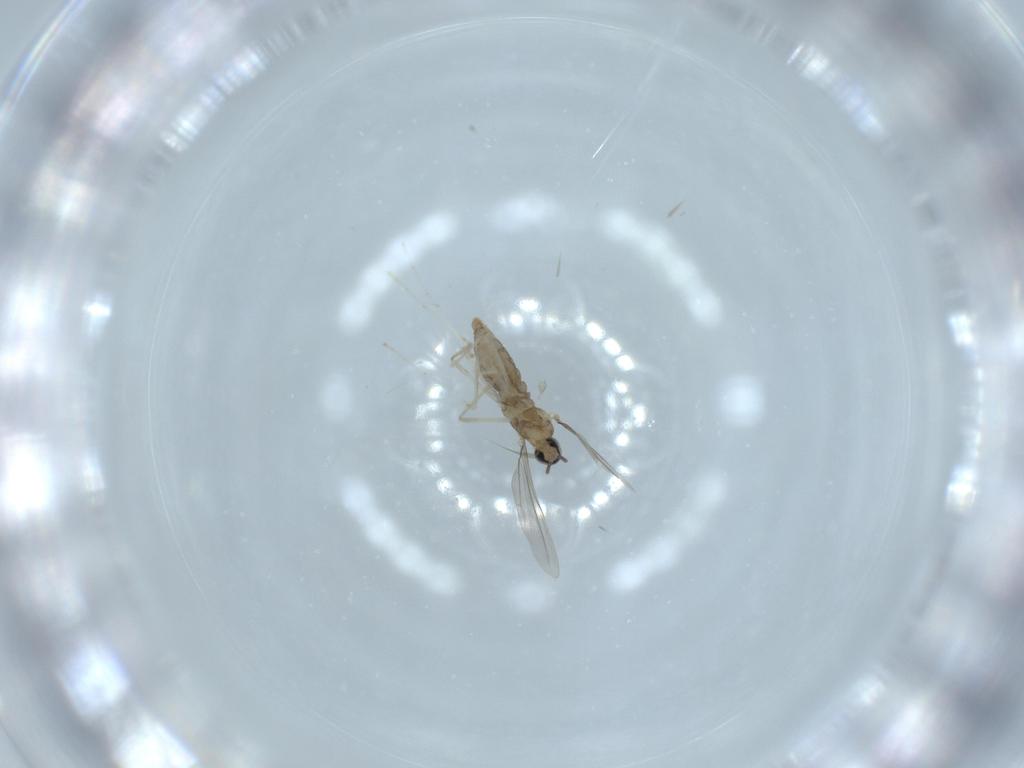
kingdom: Animalia
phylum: Arthropoda
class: Insecta
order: Diptera
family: Cecidomyiidae
